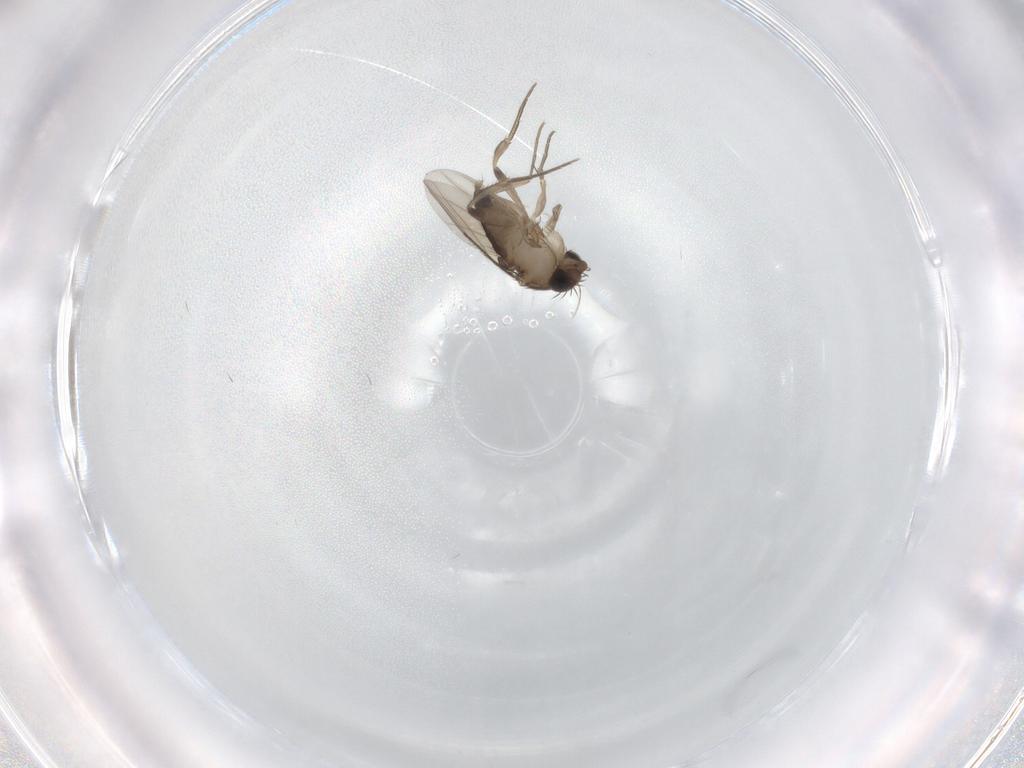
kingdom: Animalia
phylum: Arthropoda
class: Insecta
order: Diptera
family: Phoridae
